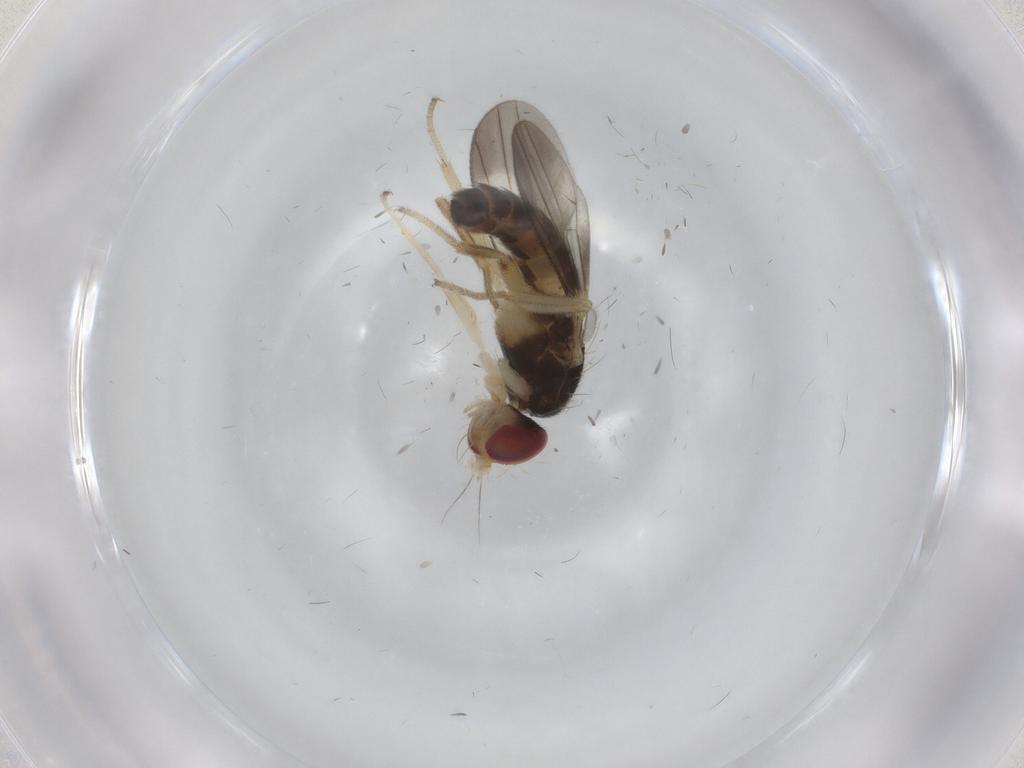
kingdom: Animalia
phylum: Arthropoda
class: Insecta
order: Diptera
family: Clusiidae
